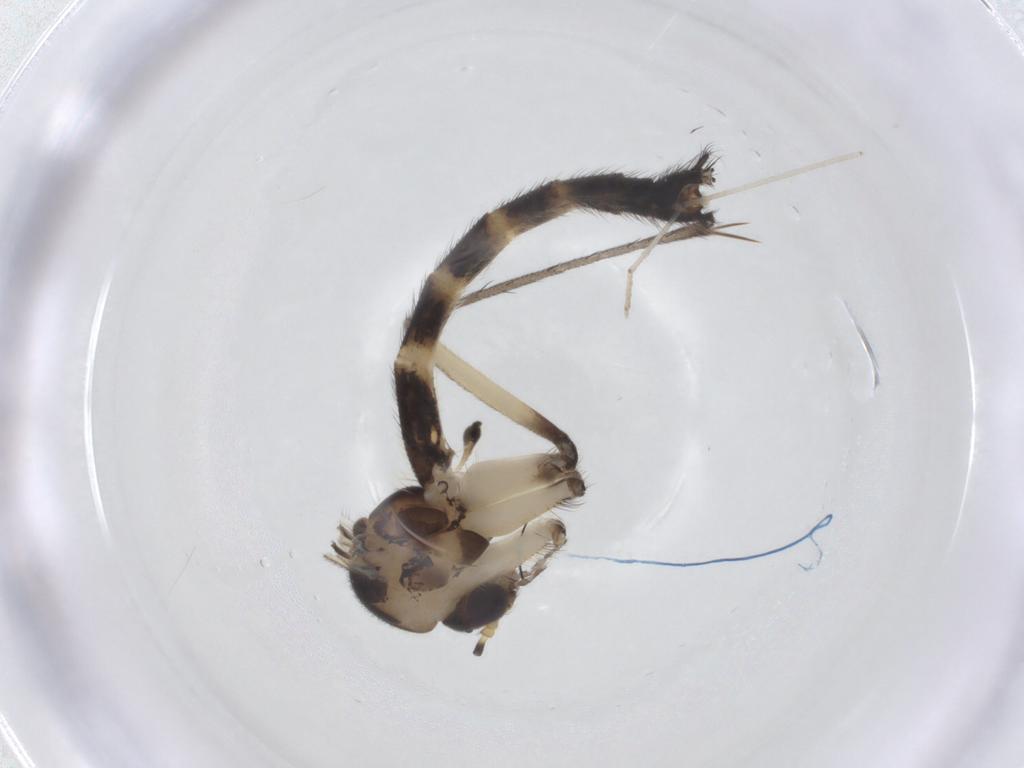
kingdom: Animalia
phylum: Arthropoda
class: Insecta
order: Diptera
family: Mycetophilidae
